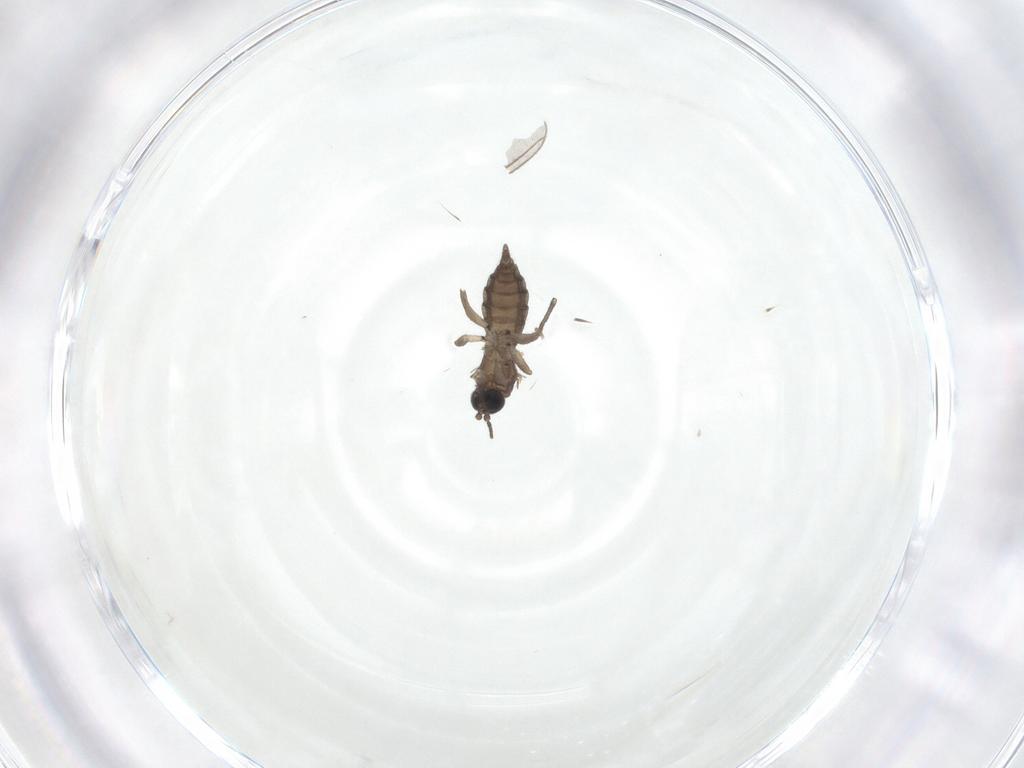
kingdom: Animalia
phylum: Arthropoda
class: Insecta
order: Diptera
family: Sciaridae
